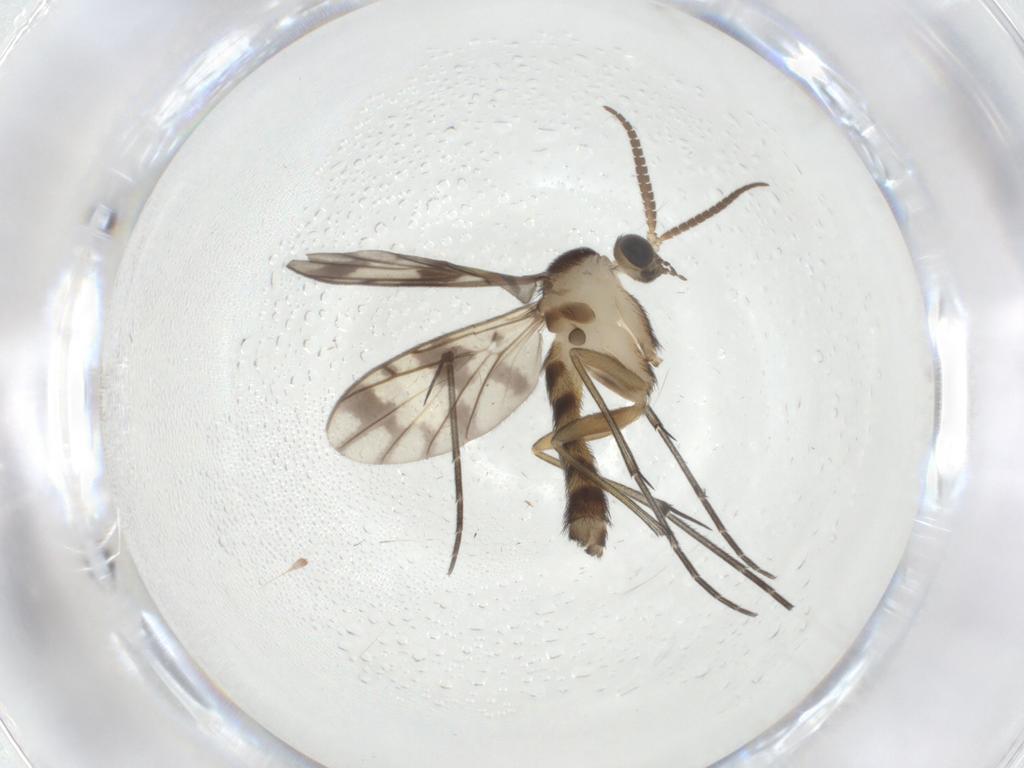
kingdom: Animalia
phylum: Arthropoda
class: Insecta
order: Diptera
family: Keroplatidae
